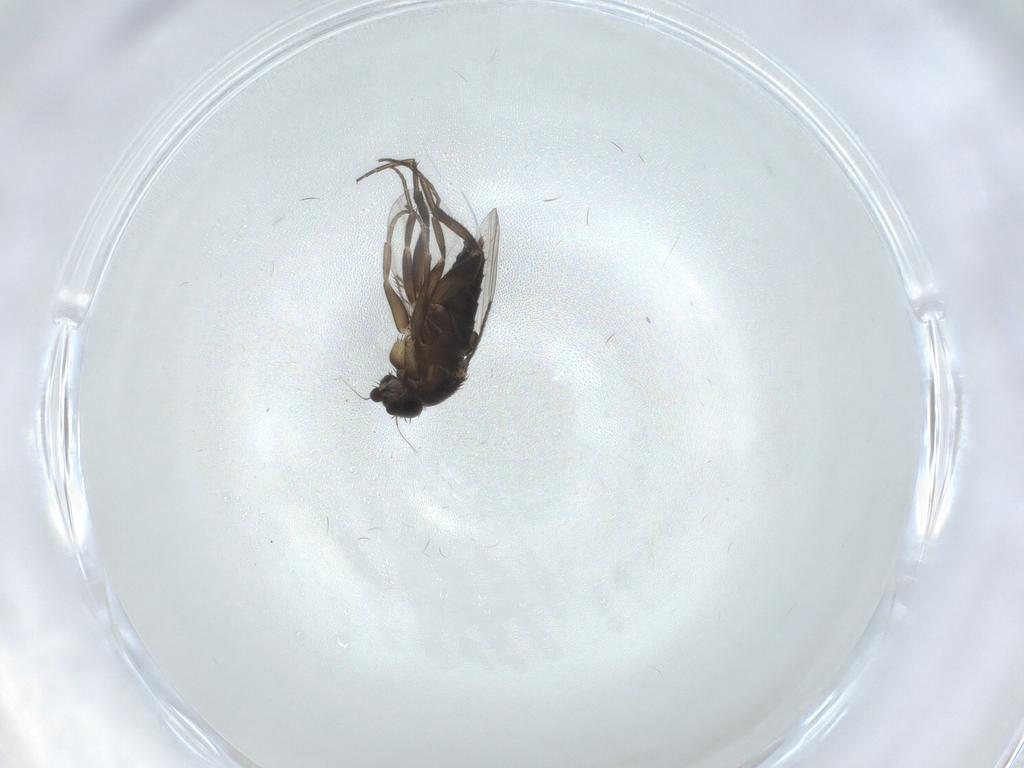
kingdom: Animalia
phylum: Arthropoda
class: Insecta
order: Diptera
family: Phoridae
